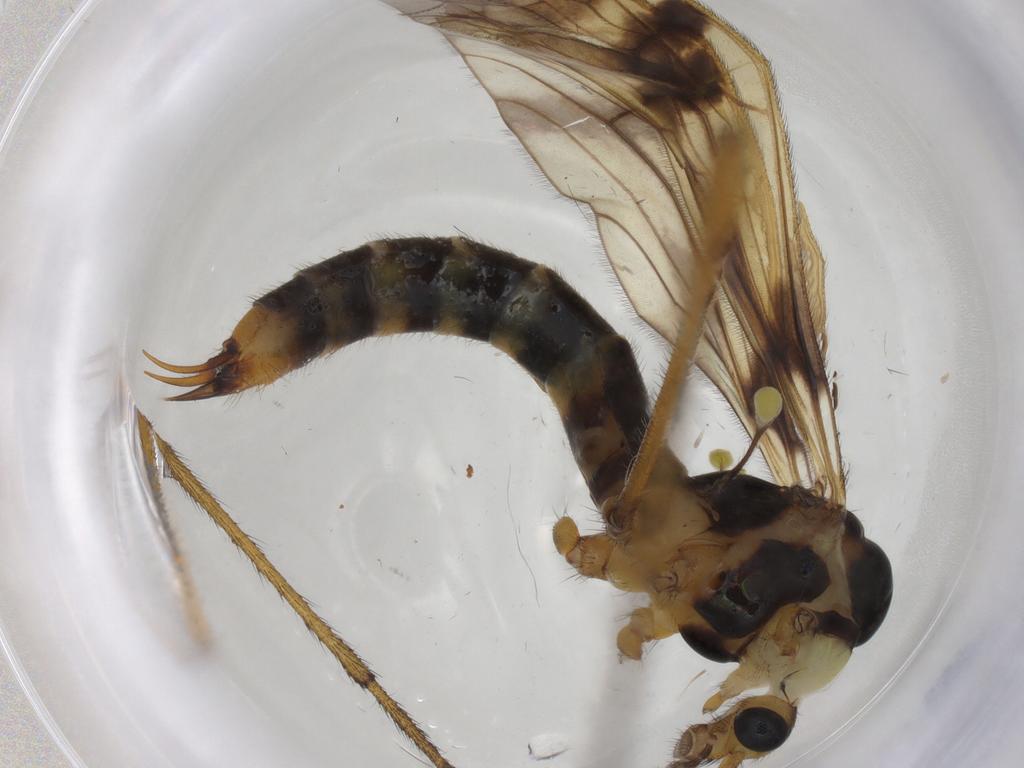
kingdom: Animalia
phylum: Arthropoda
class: Insecta
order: Diptera
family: Limoniidae
